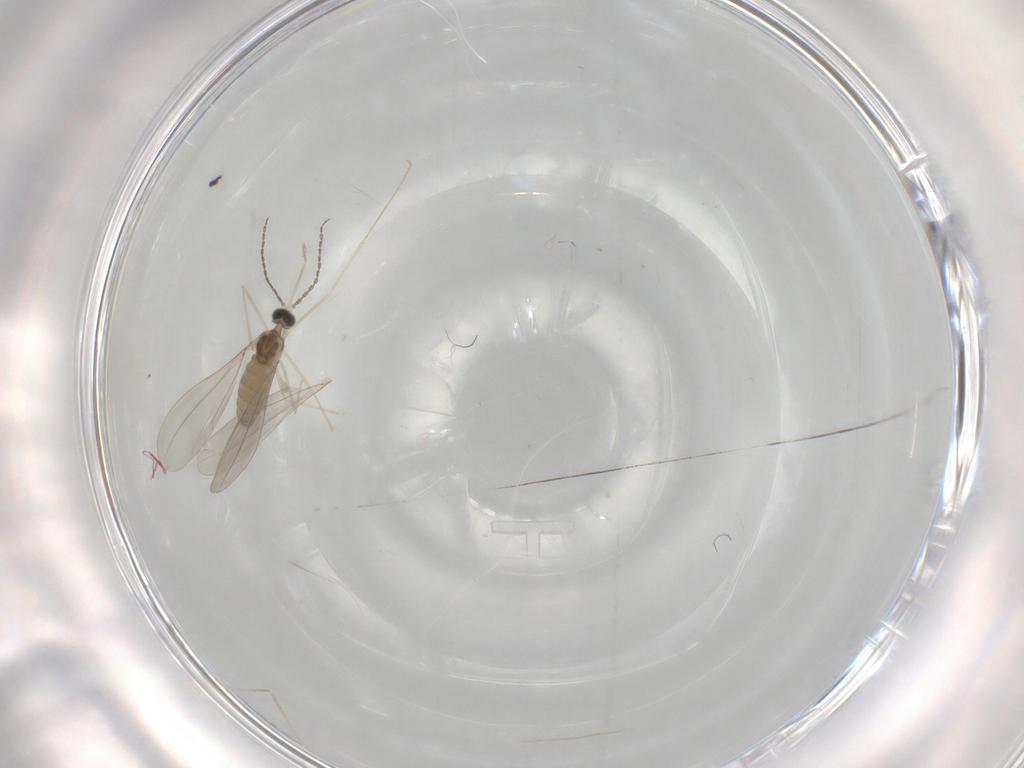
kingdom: Animalia
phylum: Arthropoda
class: Insecta
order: Diptera
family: Cecidomyiidae
